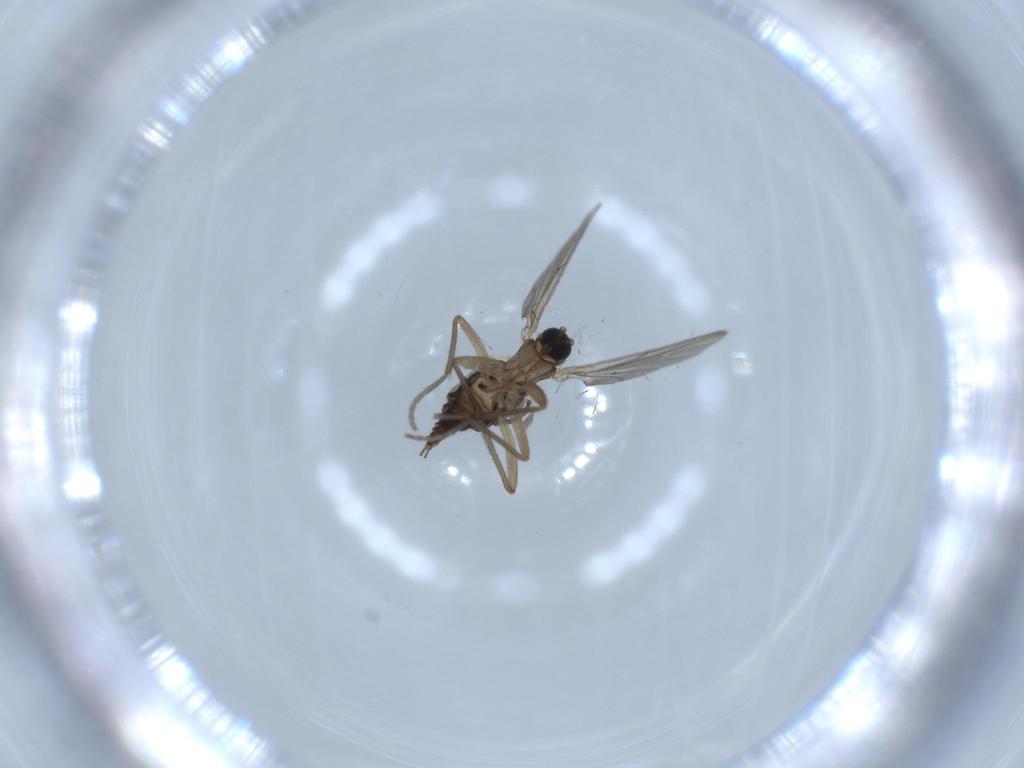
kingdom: Animalia
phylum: Arthropoda
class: Insecta
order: Diptera
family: Sciaridae
